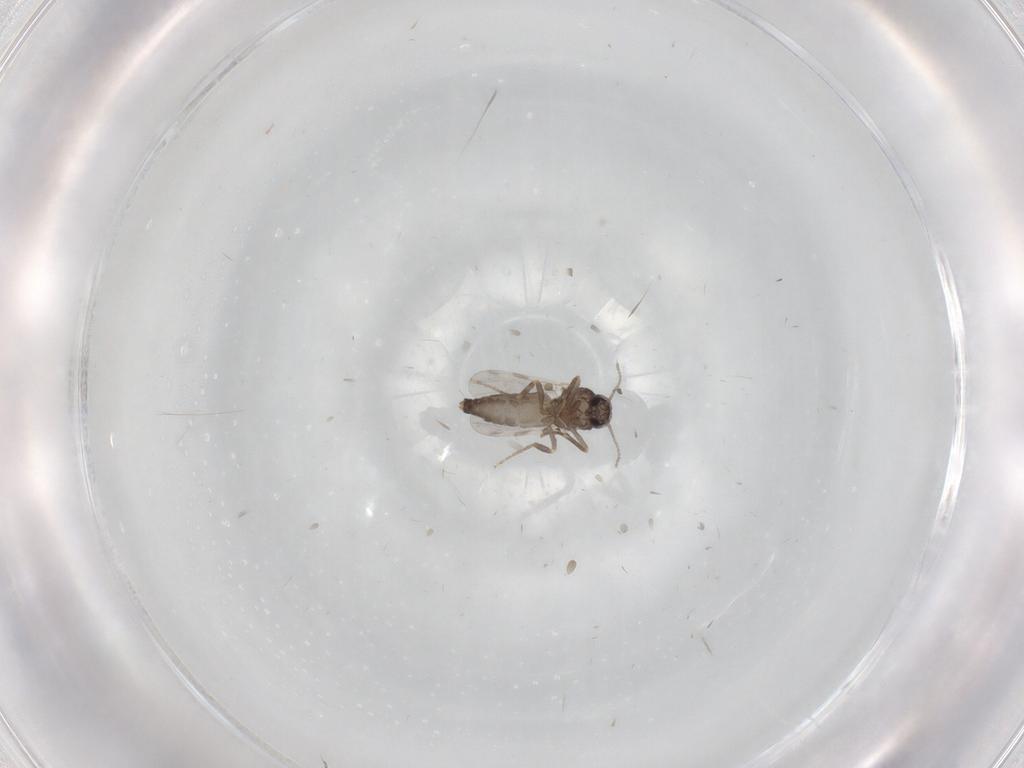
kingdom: Animalia
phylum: Arthropoda
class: Insecta
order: Diptera
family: Ceratopogonidae
